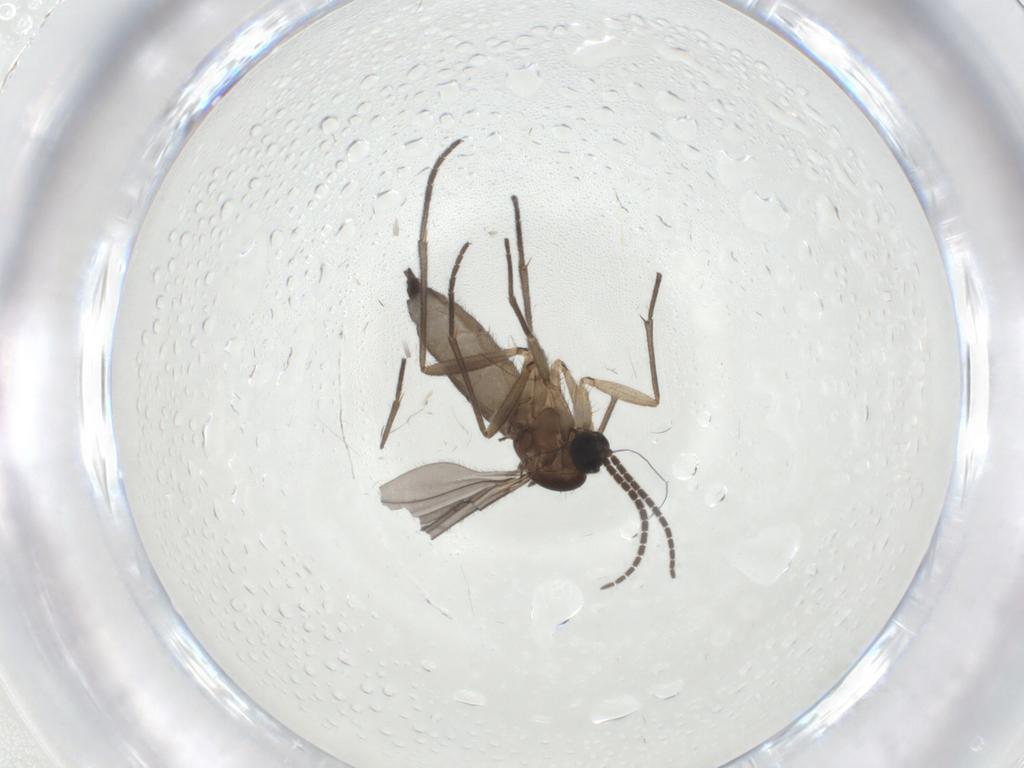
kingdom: Animalia
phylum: Arthropoda
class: Insecta
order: Diptera
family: Sciaridae
